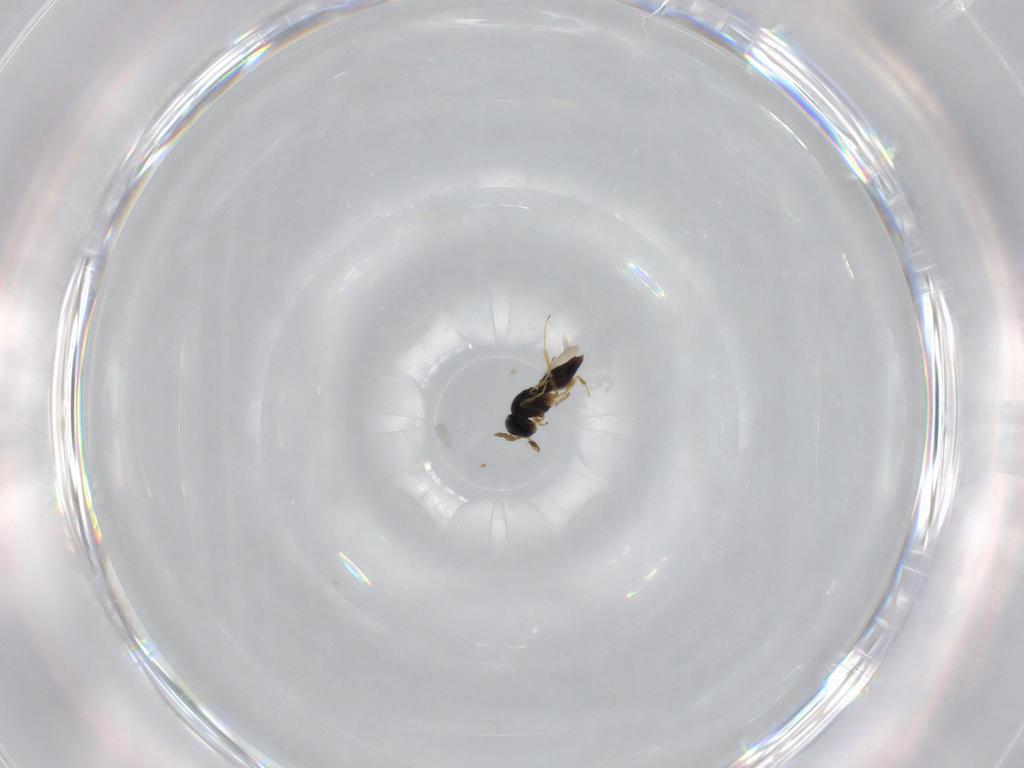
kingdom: Animalia
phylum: Arthropoda
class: Insecta
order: Hymenoptera
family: Scelionidae
